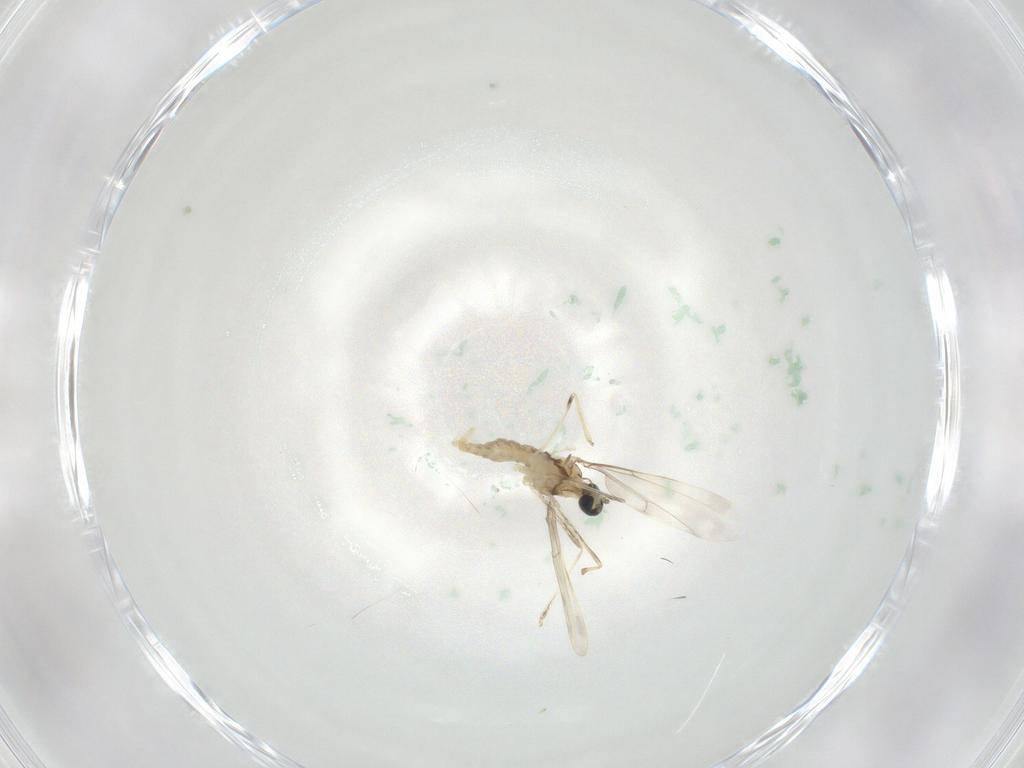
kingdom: Animalia
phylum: Arthropoda
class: Insecta
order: Diptera
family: Cecidomyiidae
